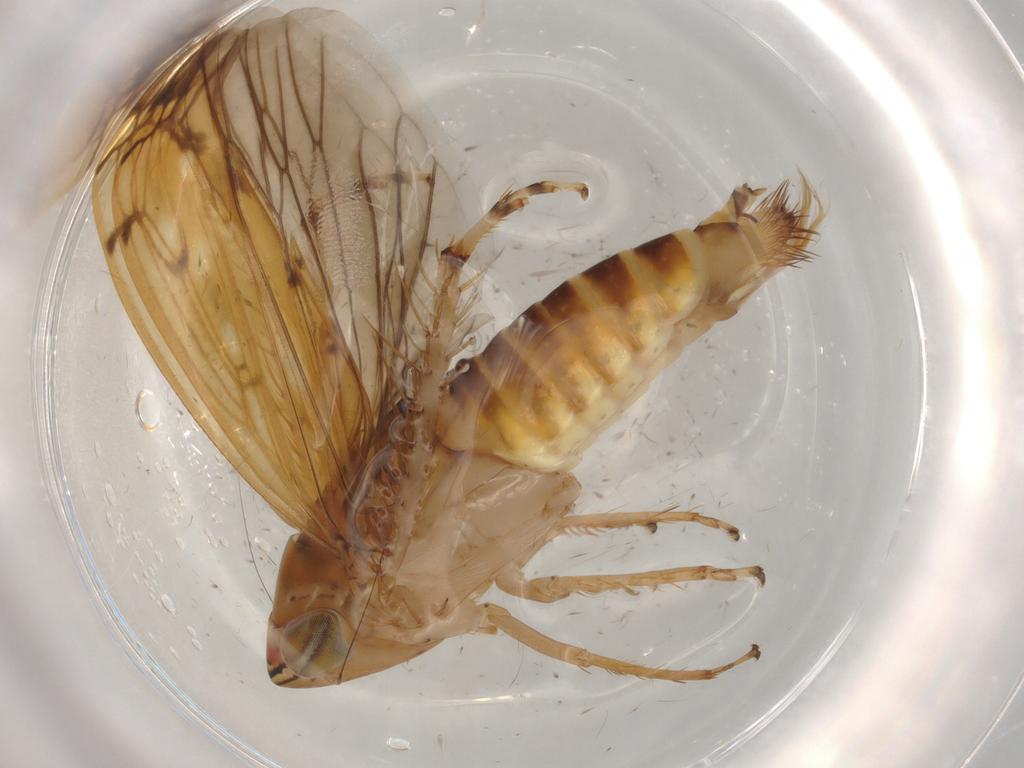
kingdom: Animalia
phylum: Arthropoda
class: Insecta
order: Hemiptera
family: Cicadellidae
